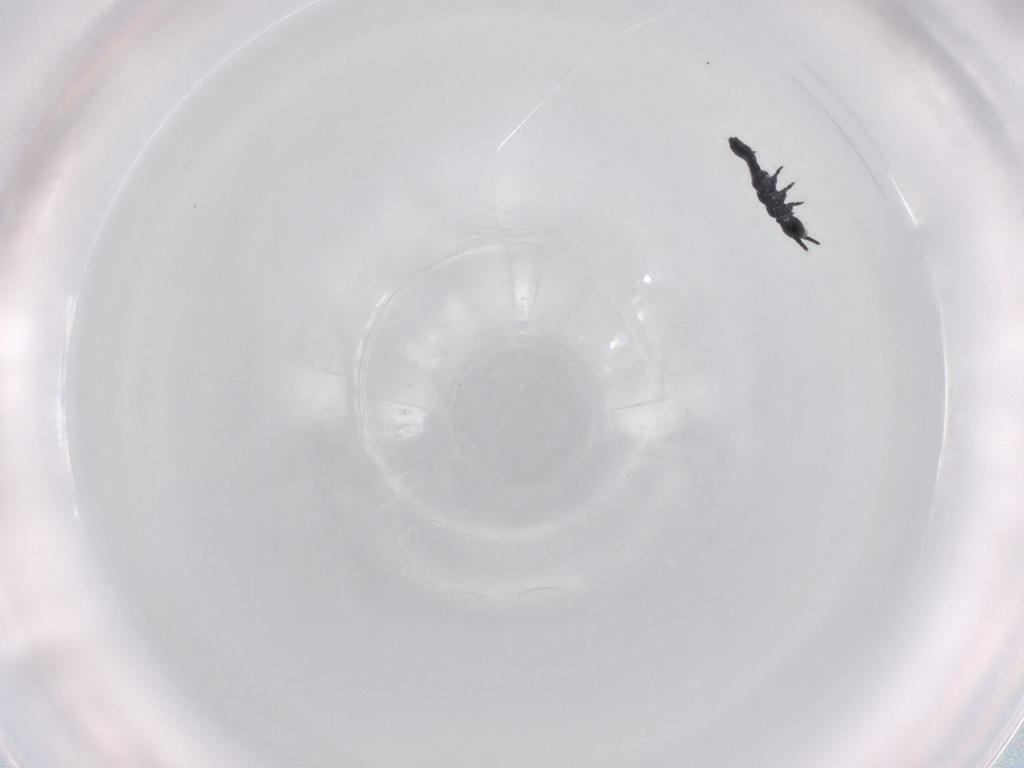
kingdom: Animalia
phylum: Arthropoda
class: Collembola
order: Poduromorpha
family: Hypogastruridae
